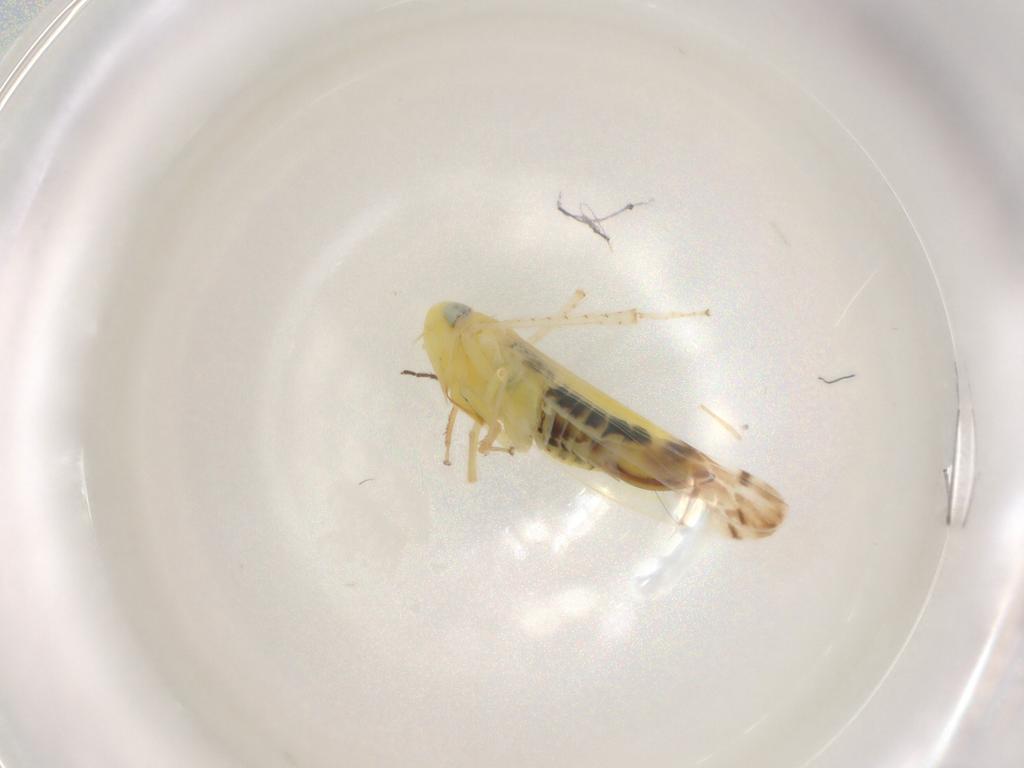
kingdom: Animalia
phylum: Arthropoda
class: Insecta
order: Hemiptera
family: Cicadellidae
